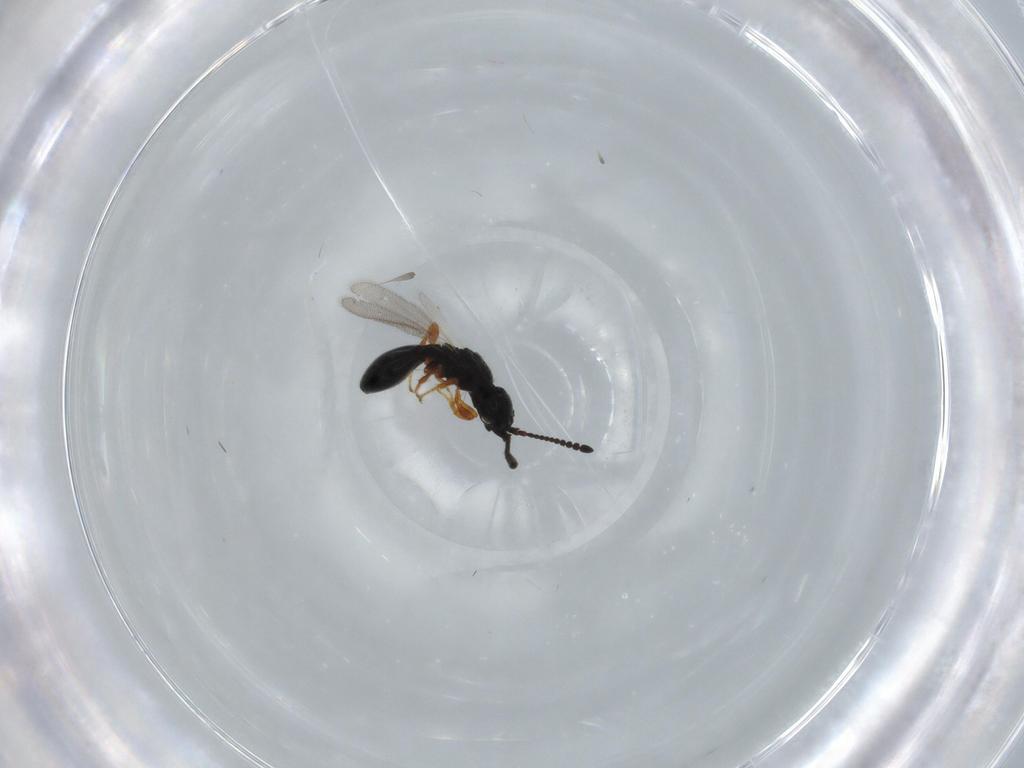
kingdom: Animalia
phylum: Arthropoda
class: Insecta
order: Hymenoptera
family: Diapriidae
